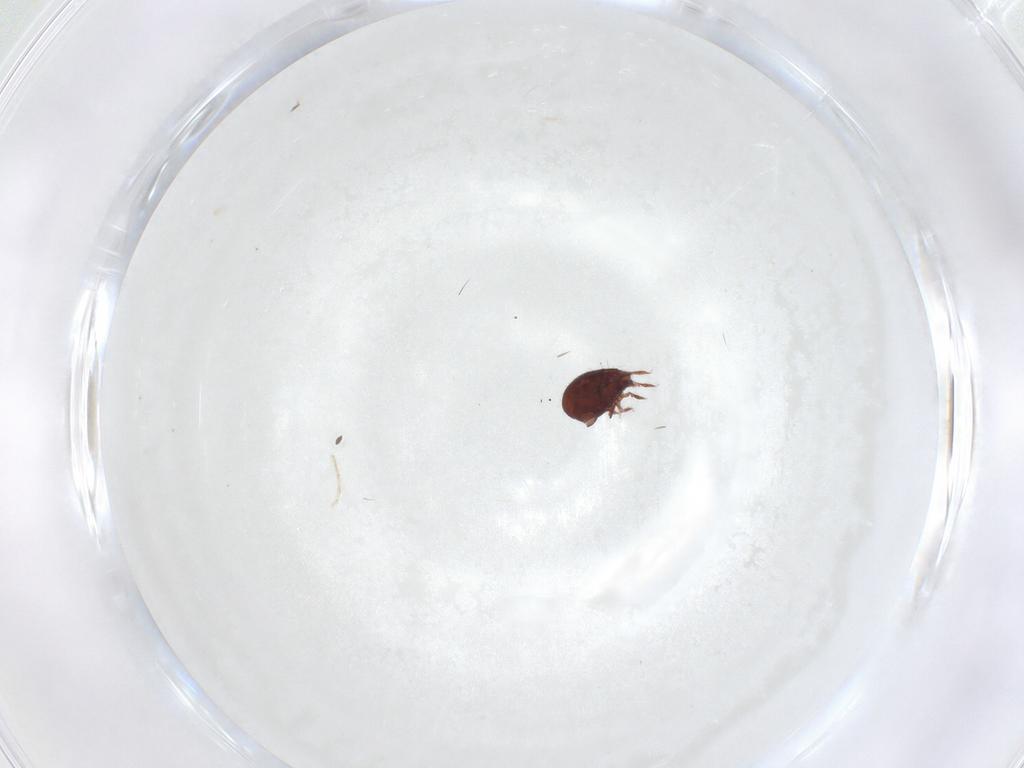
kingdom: Animalia
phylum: Arthropoda
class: Arachnida
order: Sarcoptiformes
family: Humerobatidae
